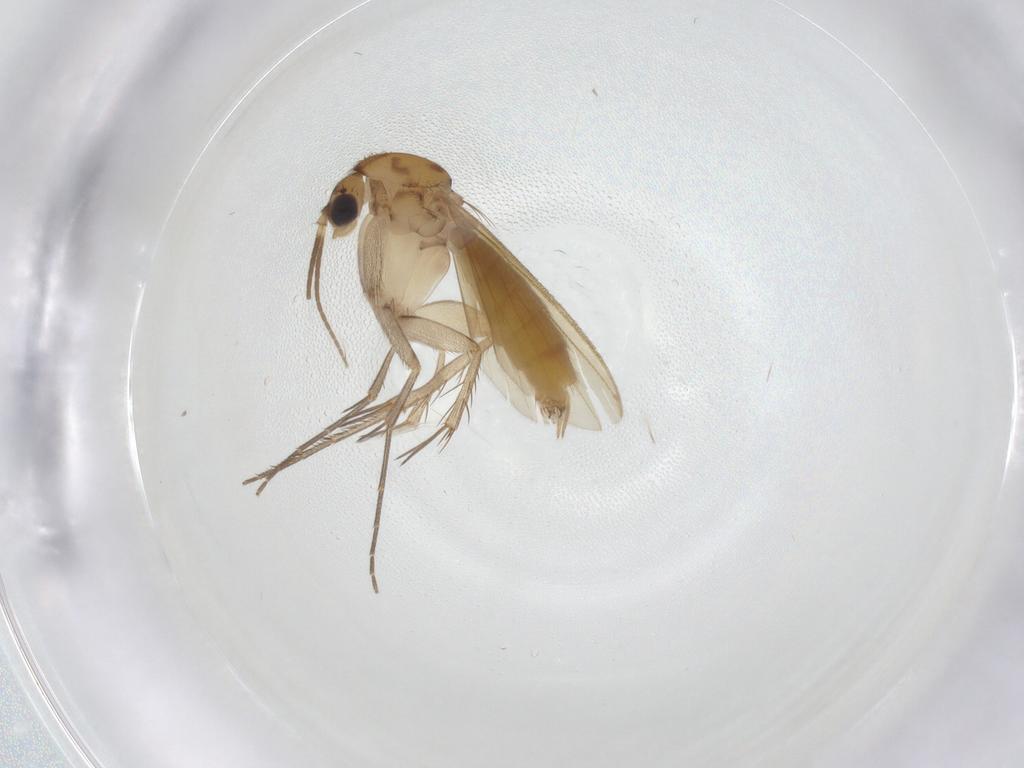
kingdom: Animalia
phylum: Arthropoda
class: Insecta
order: Diptera
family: Mycetophilidae
